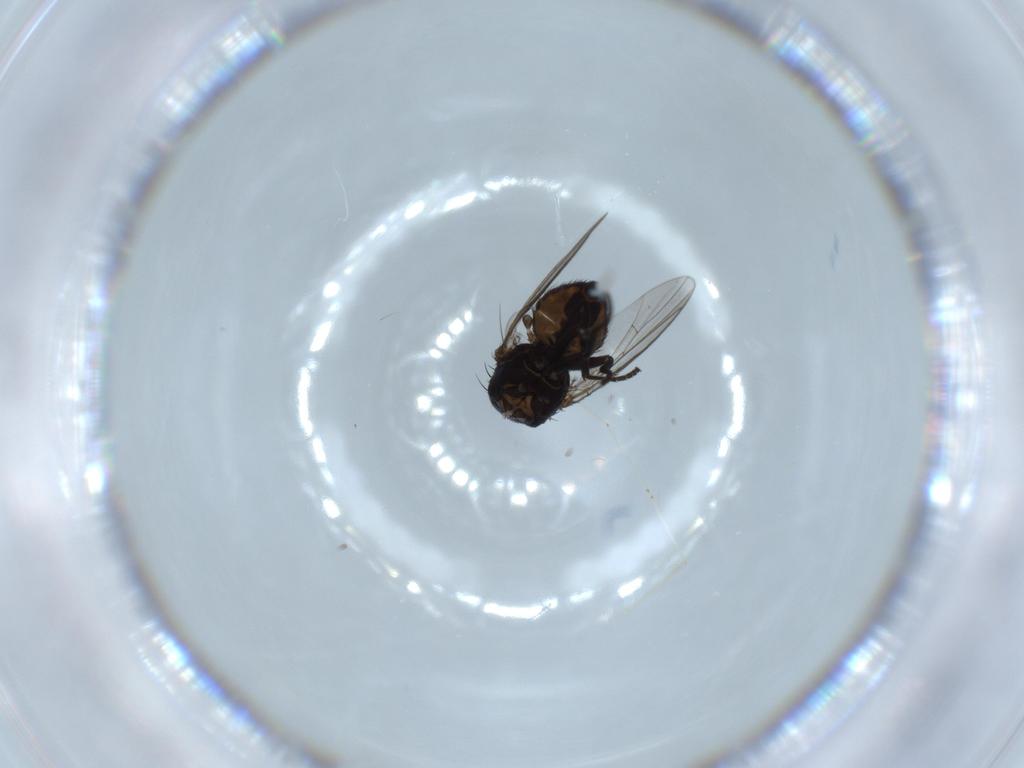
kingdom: Animalia
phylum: Arthropoda
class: Insecta
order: Diptera
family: Agromyzidae
